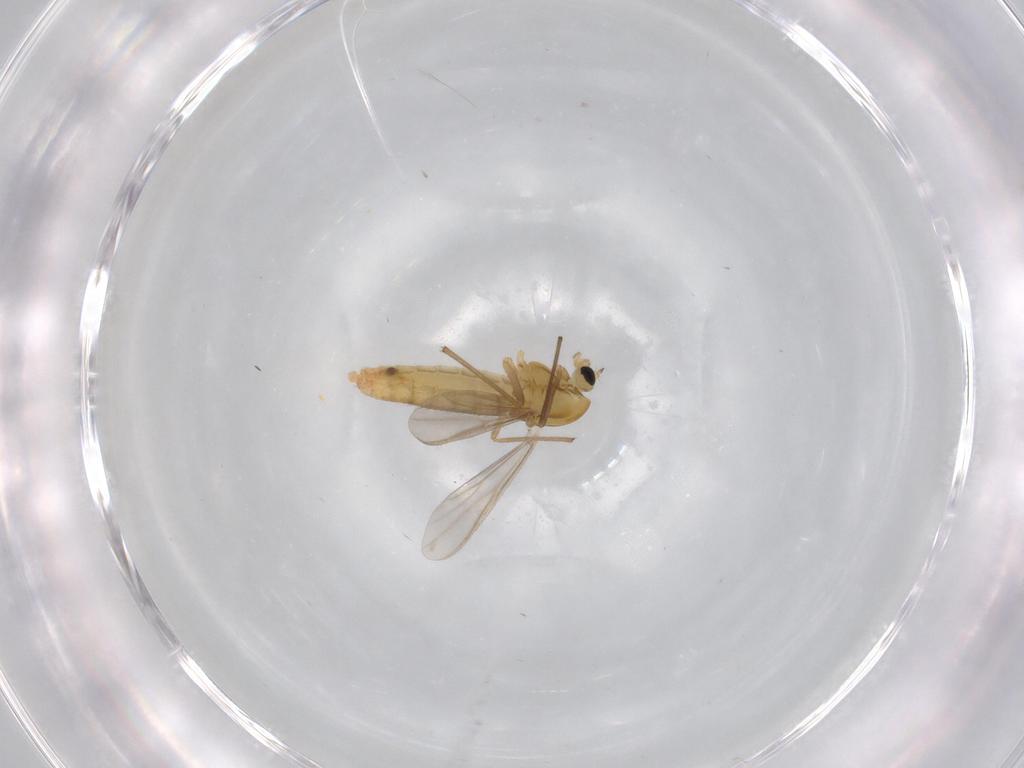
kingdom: Animalia
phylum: Arthropoda
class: Insecta
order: Diptera
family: Chironomidae
